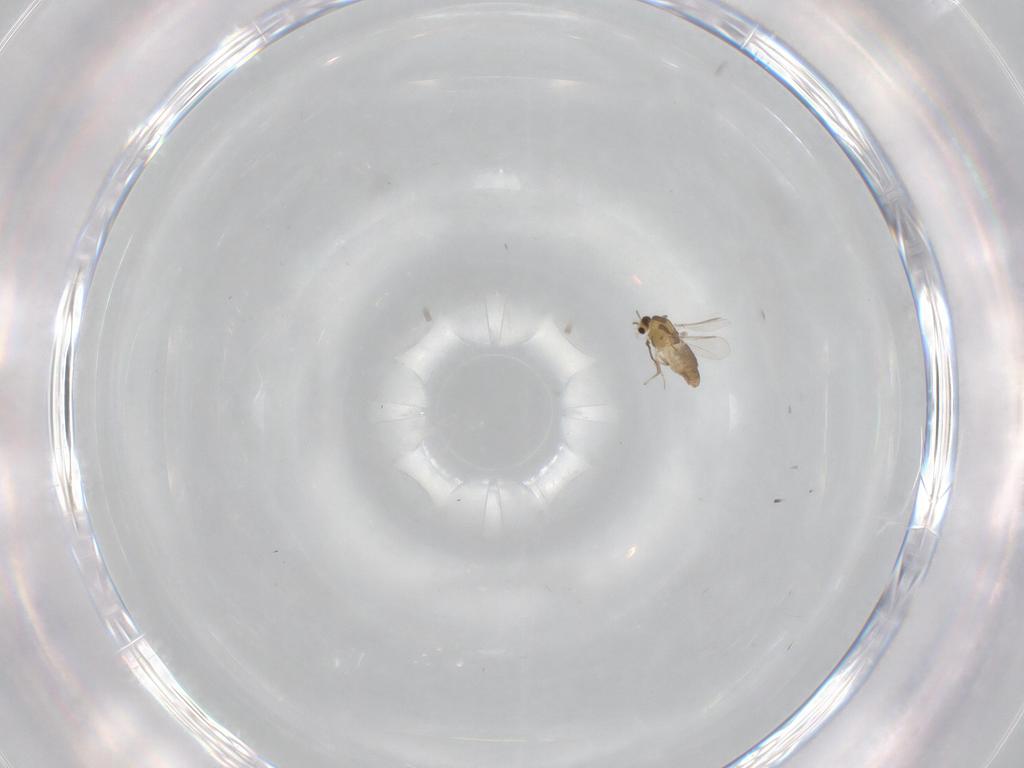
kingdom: Animalia
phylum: Arthropoda
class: Insecta
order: Diptera
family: Chironomidae
